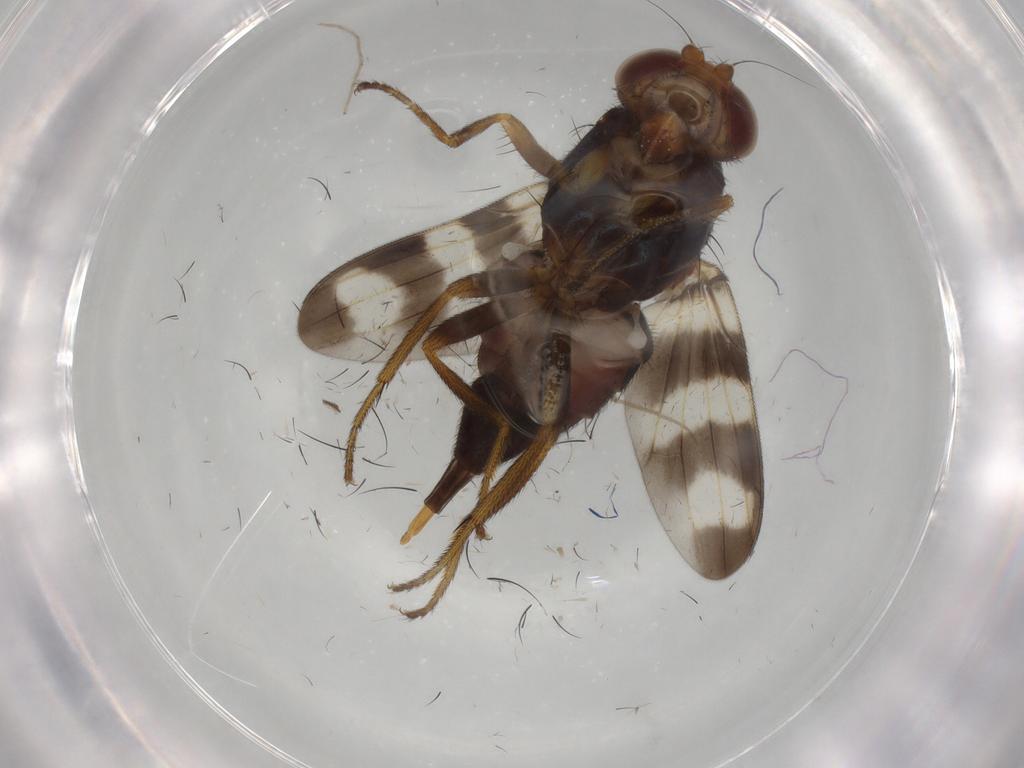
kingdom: Animalia
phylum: Arthropoda
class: Insecta
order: Diptera
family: Chironomidae
